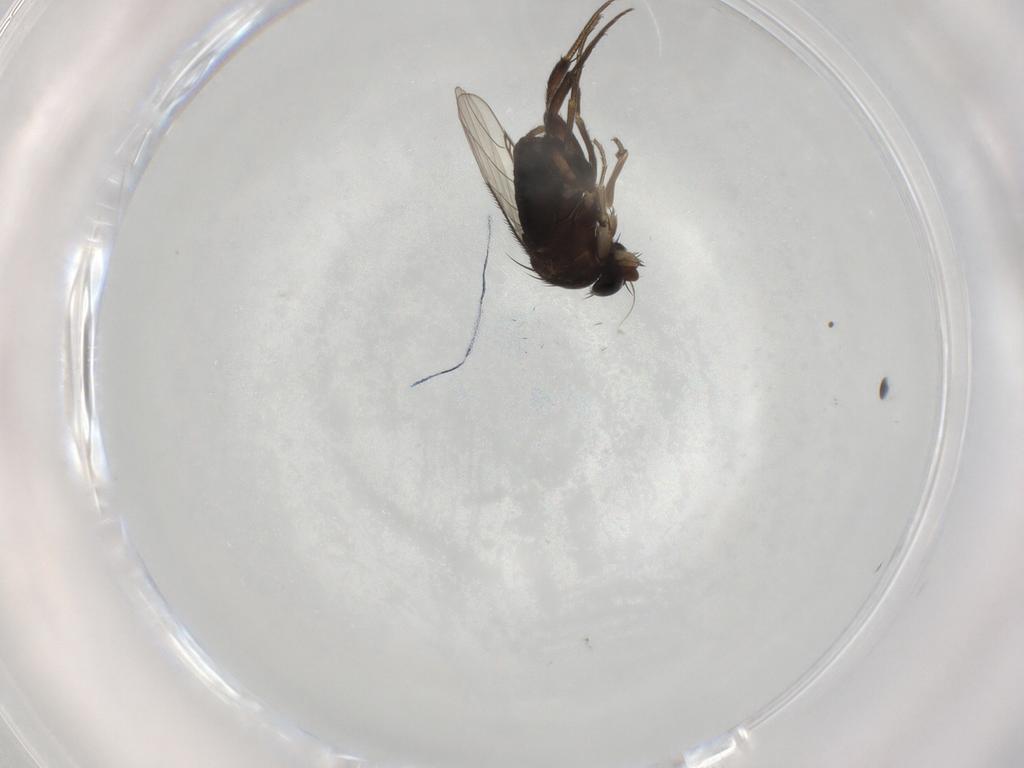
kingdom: Animalia
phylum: Arthropoda
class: Insecta
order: Diptera
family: Phoridae
